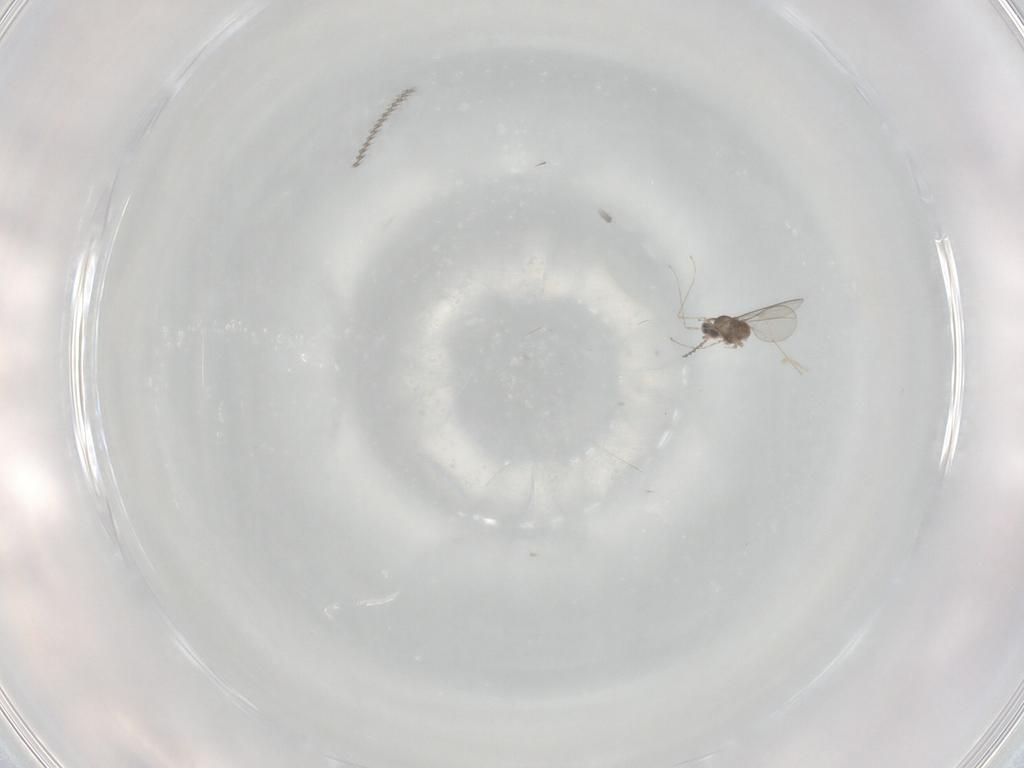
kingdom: Animalia
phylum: Arthropoda
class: Insecta
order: Diptera
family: Cecidomyiidae
